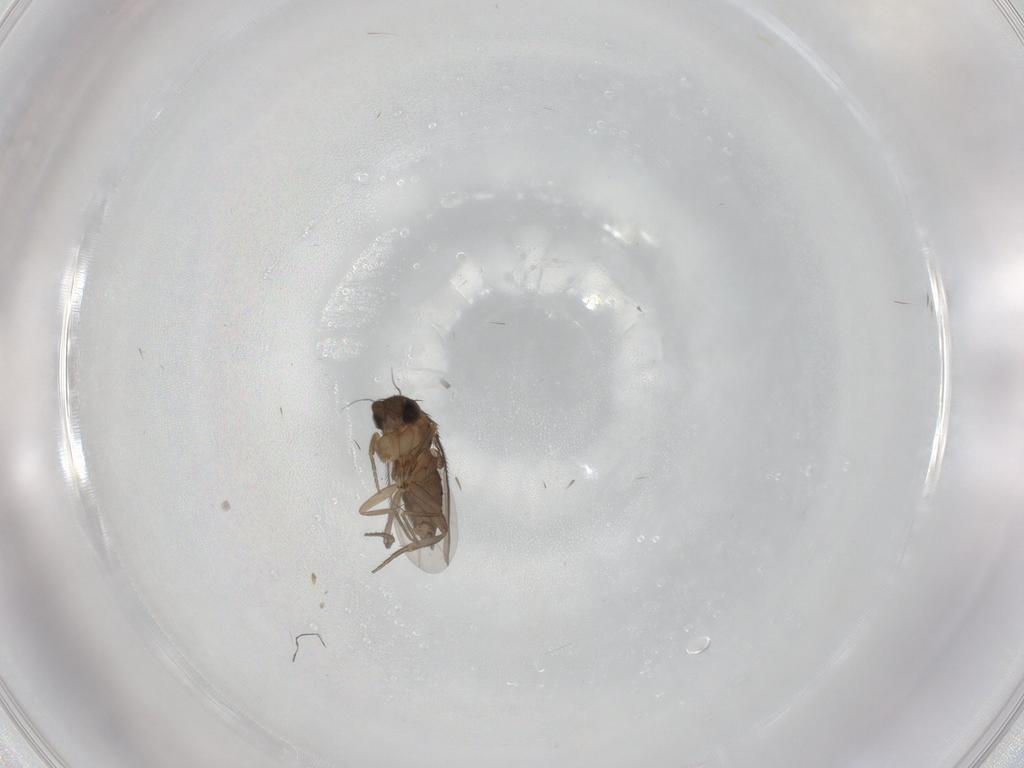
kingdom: Animalia
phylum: Arthropoda
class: Insecta
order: Diptera
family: Phoridae
